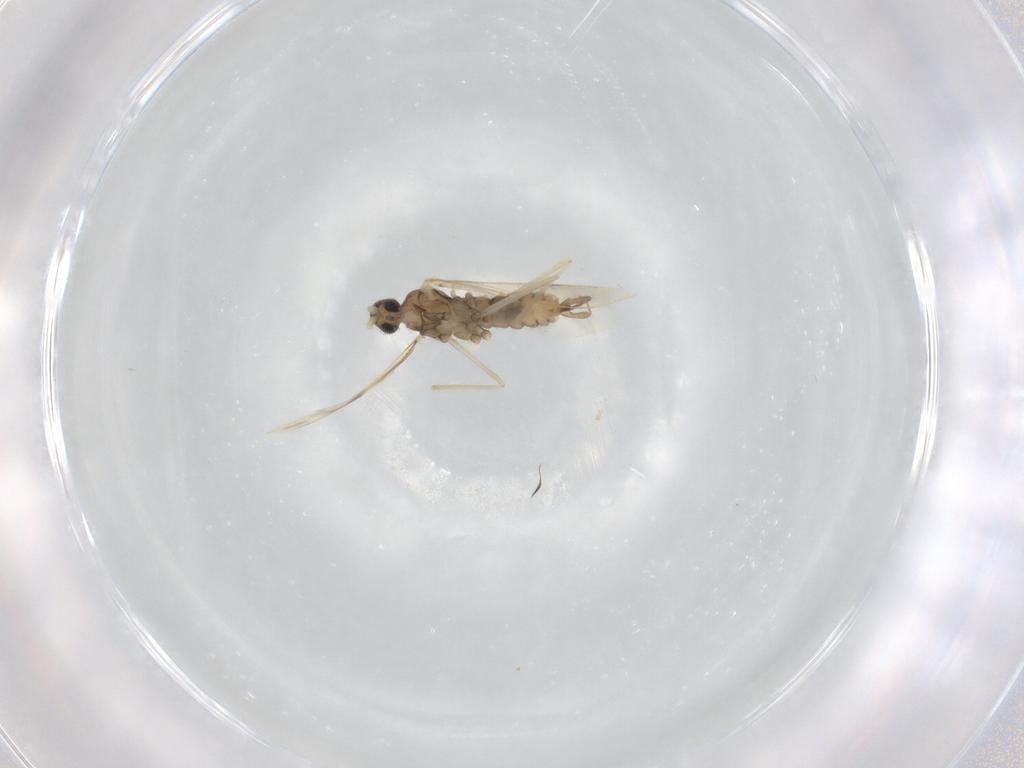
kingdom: Animalia
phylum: Arthropoda
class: Insecta
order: Diptera
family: Cecidomyiidae
